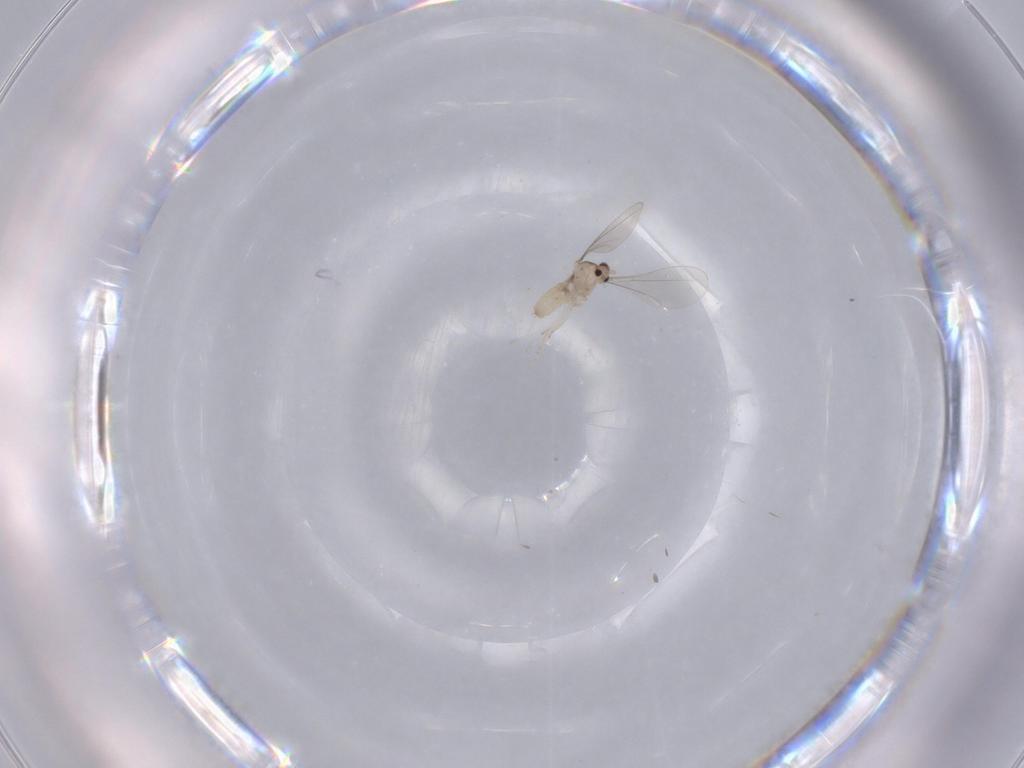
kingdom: Animalia
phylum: Arthropoda
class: Insecta
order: Diptera
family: Cecidomyiidae
